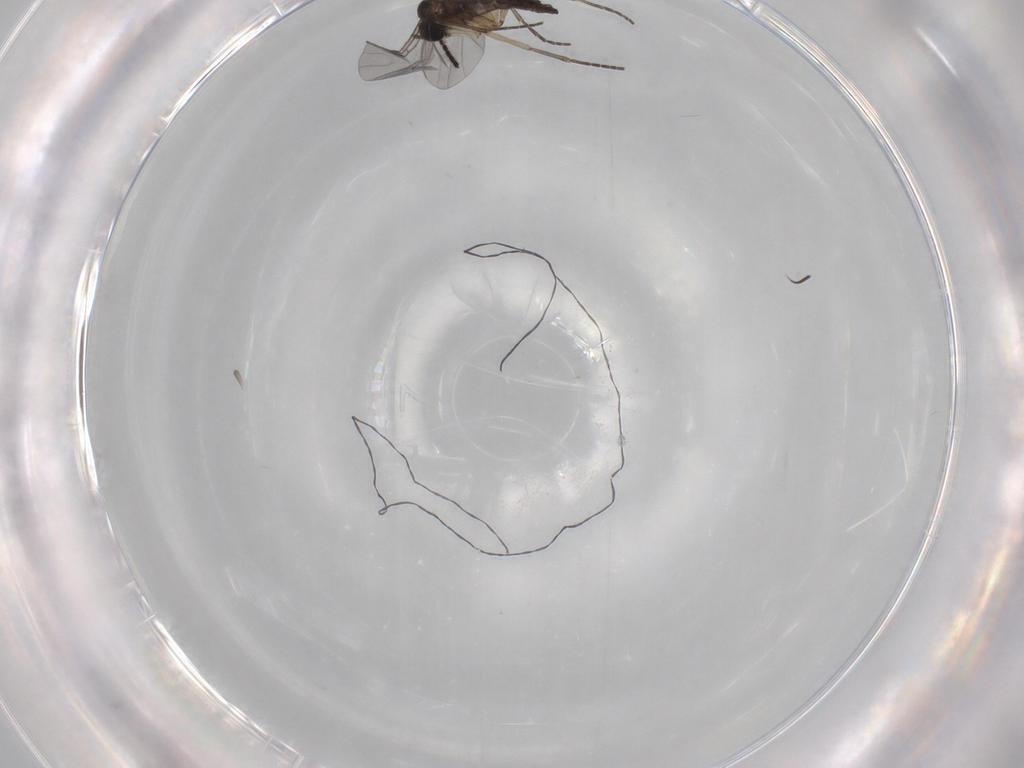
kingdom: Animalia
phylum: Arthropoda
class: Insecta
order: Diptera
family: Sciaridae
